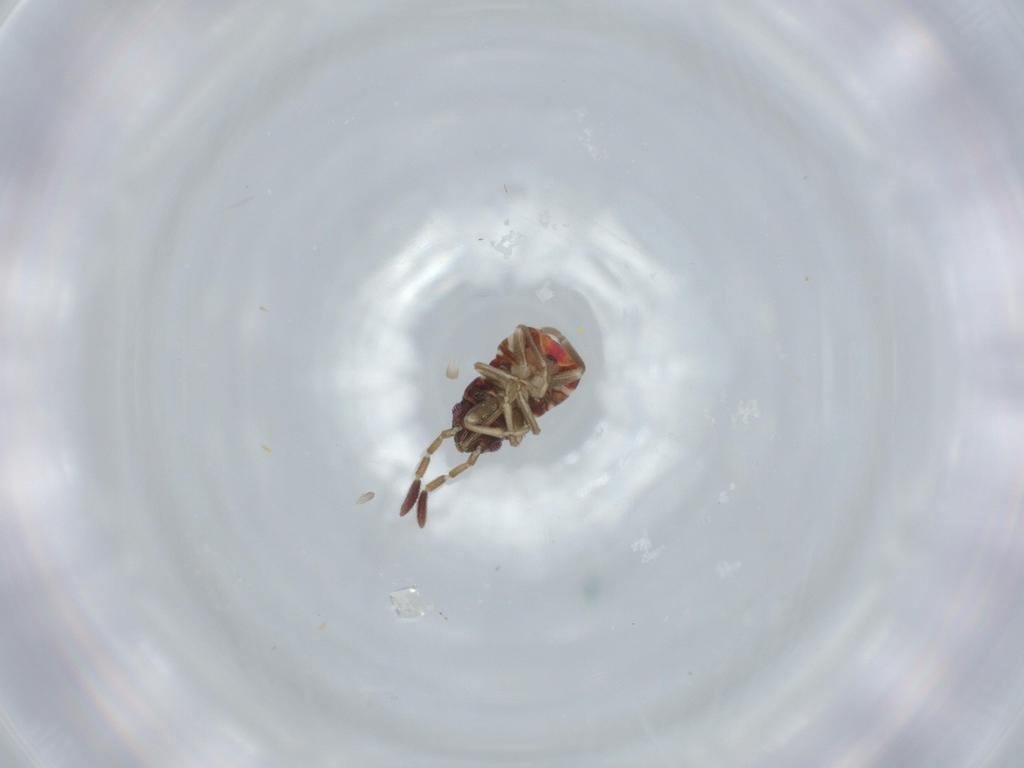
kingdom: Animalia
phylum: Arthropoda
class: Insecta
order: Hemiptera
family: Rhyparochromidae
